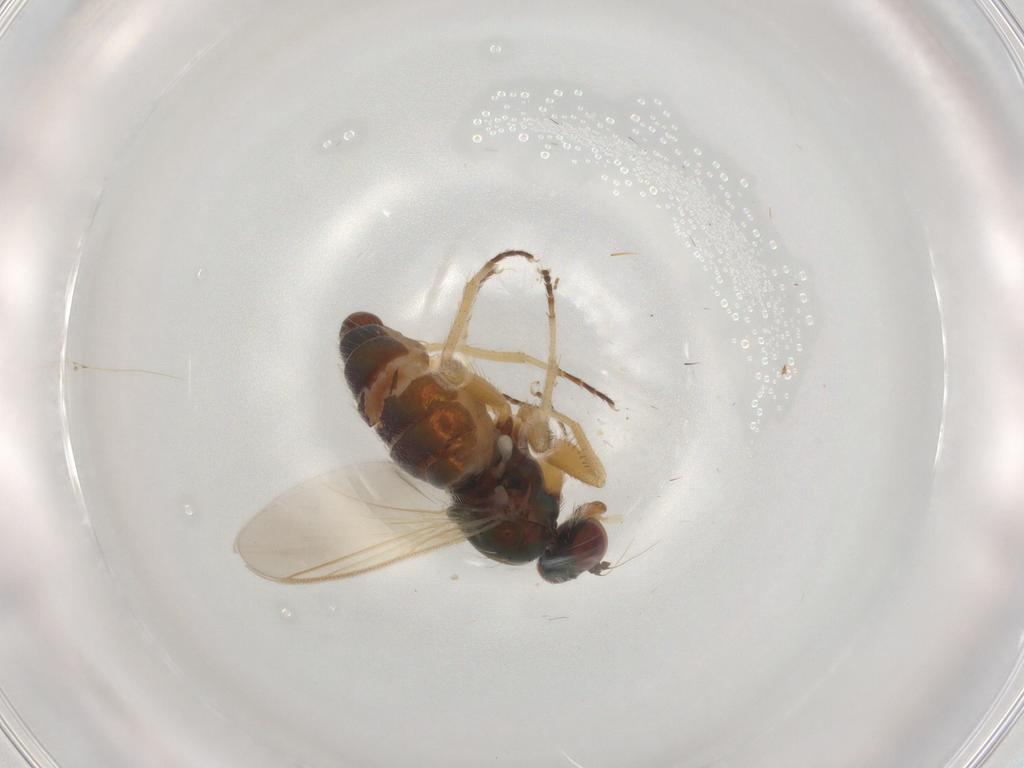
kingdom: Animalia
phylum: Arthropoda
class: Insecta
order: Diptera
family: Dolichopodidae
